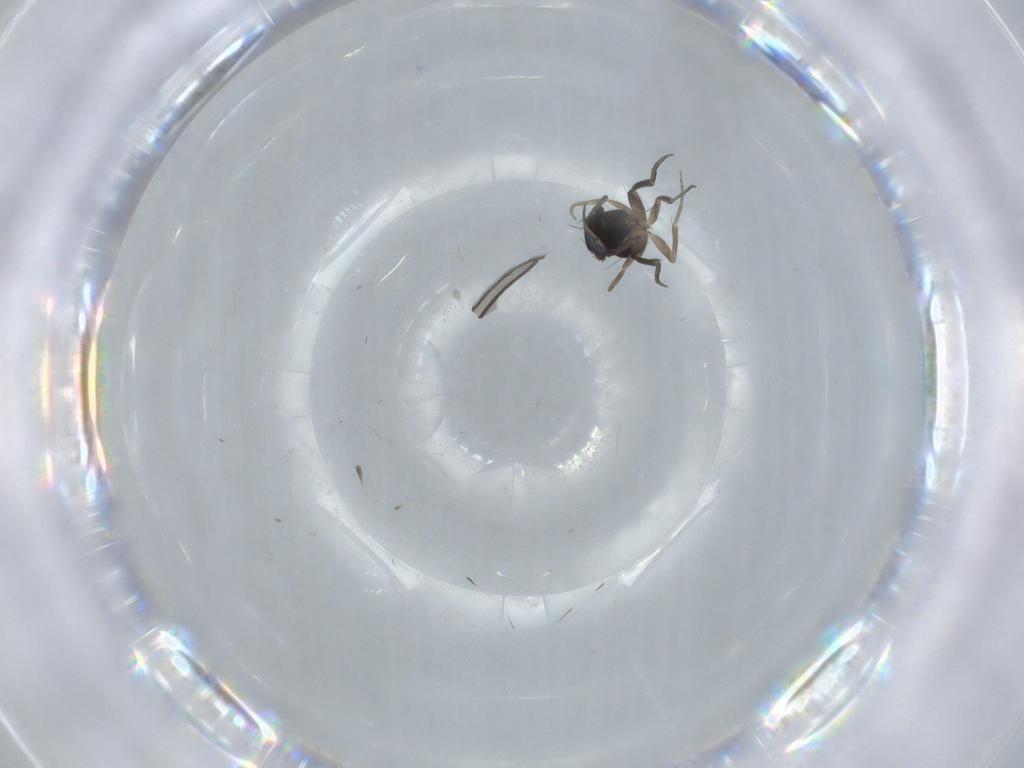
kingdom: Animalia
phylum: Arthropoda
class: Insecta
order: Diptera
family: Phoridae
